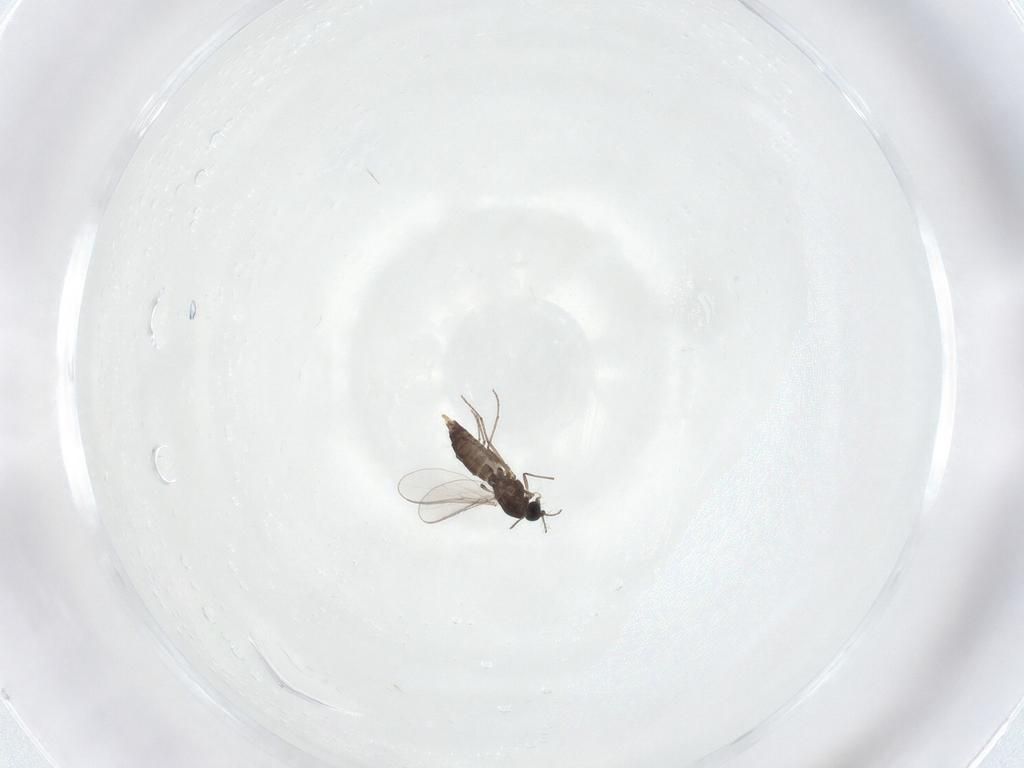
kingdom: Animalia
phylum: Arthropoda
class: Insecta
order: Diptera
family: Chironomidae
